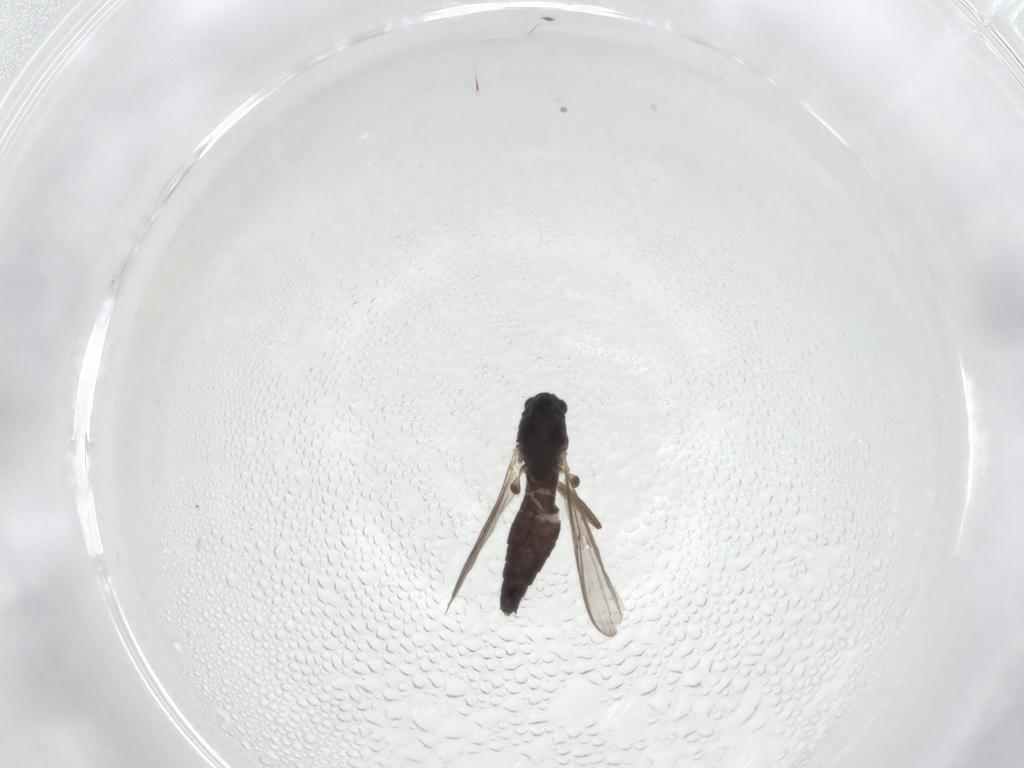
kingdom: Animalia
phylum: Arthropoda
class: Insecta
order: Diptera
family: Chironomidae
